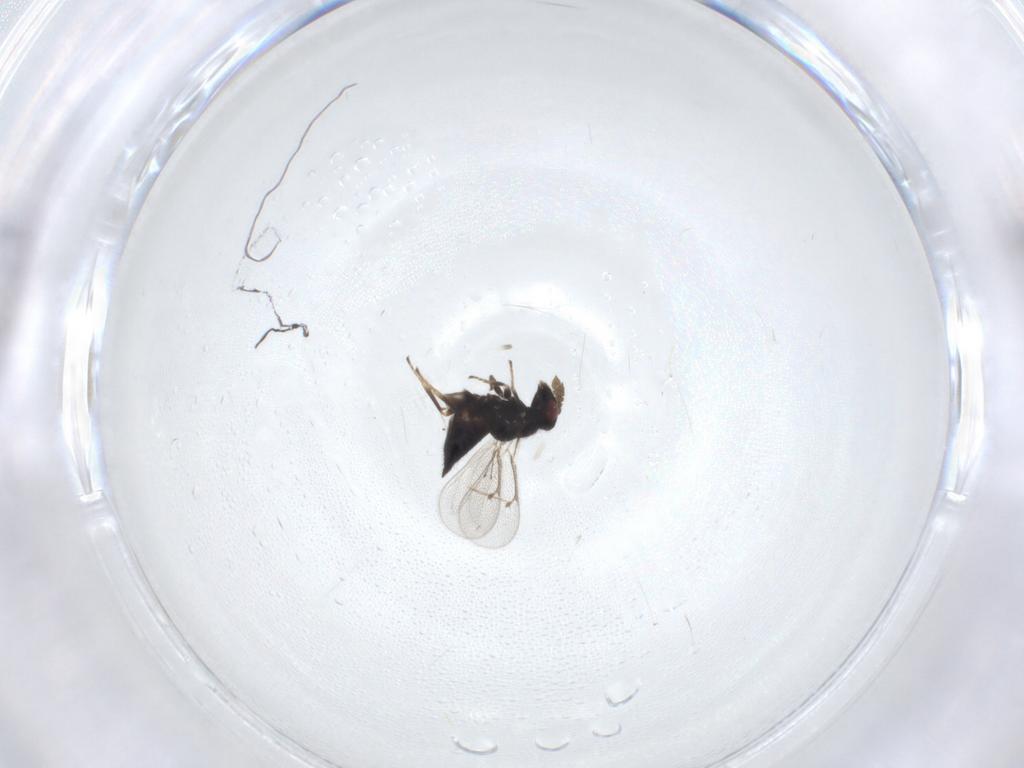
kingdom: Animalia
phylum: Arthropoda
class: Insecta
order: Hymenoptera
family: Eulophidae
